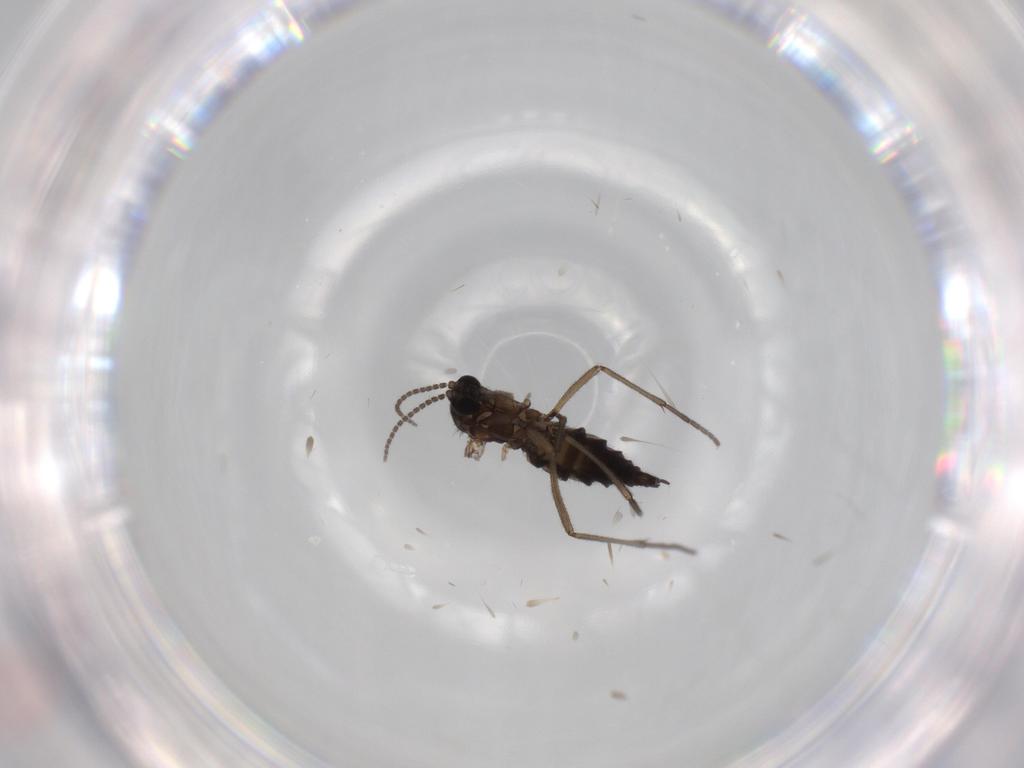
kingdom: Animalia
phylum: Arthropoda
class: Insecta
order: Diptera
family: Sciaridae
